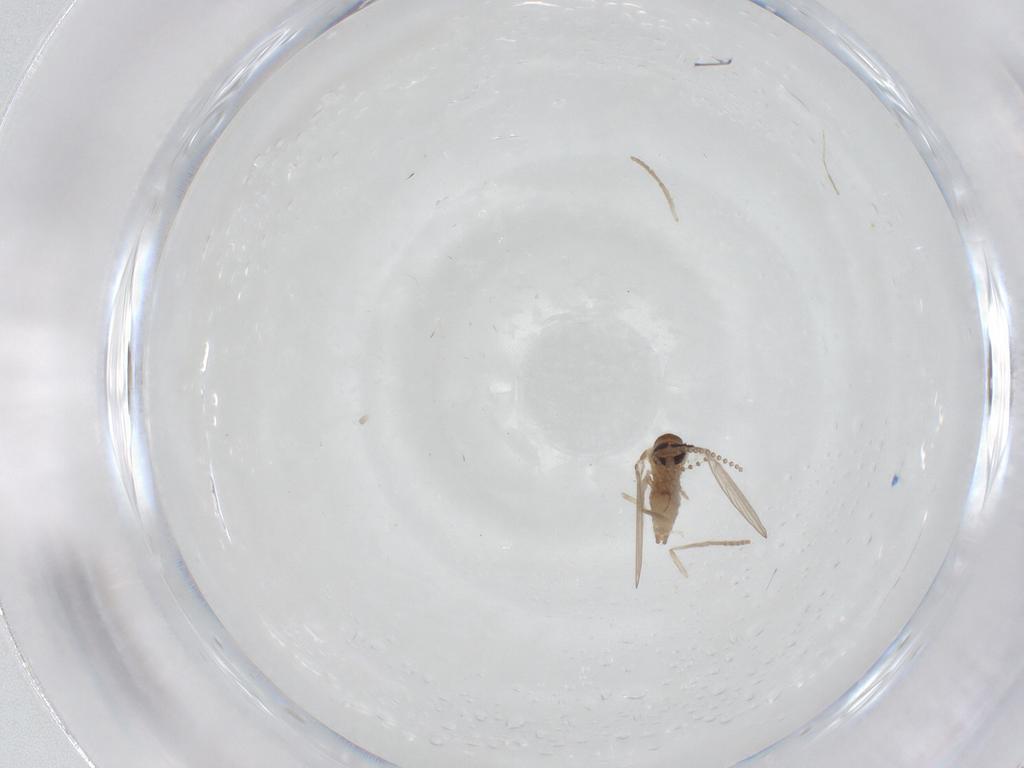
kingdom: Animalia
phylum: Arthropoda
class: Insecta
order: Diptera
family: Psychodidae
